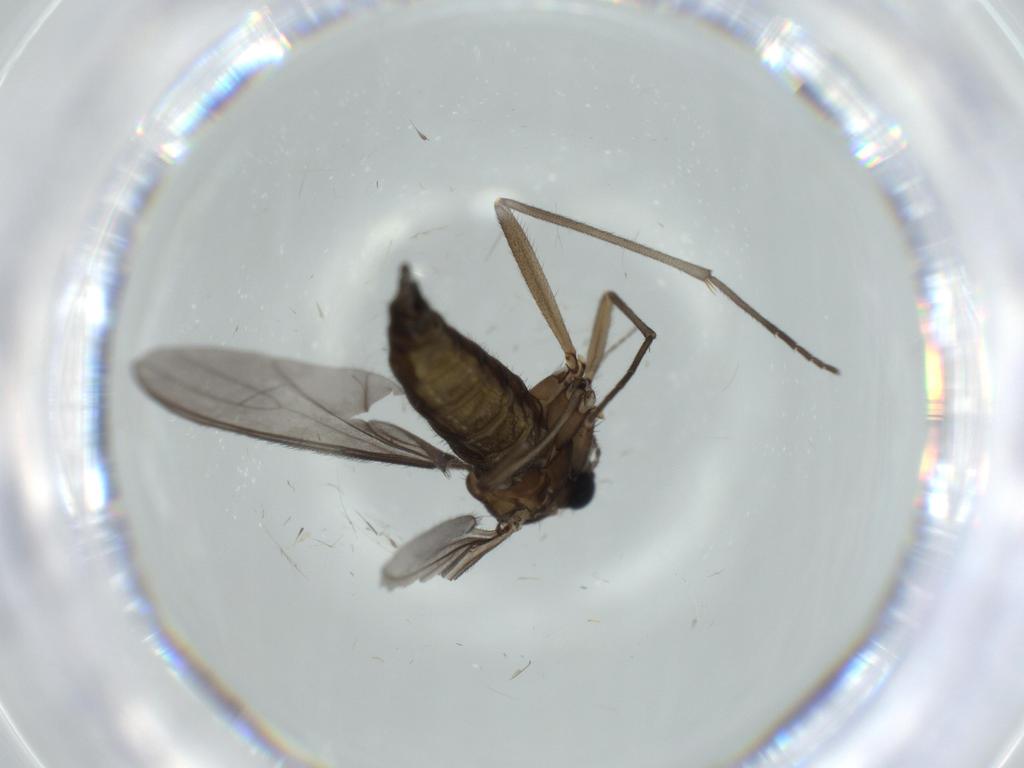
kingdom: Animalia
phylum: Arthropoda
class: Insecta
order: Diptera
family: Sciaridae
